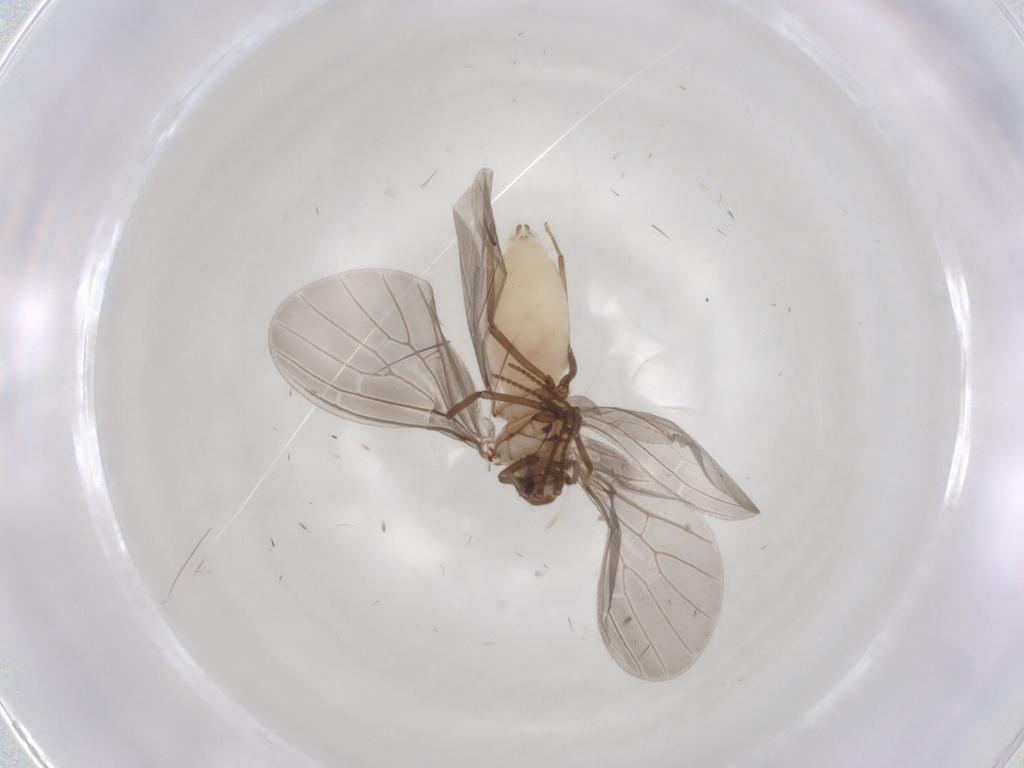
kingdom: Animalia
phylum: Arthropoda
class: Insecta
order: Neuroptera
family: Coniopterygidae
